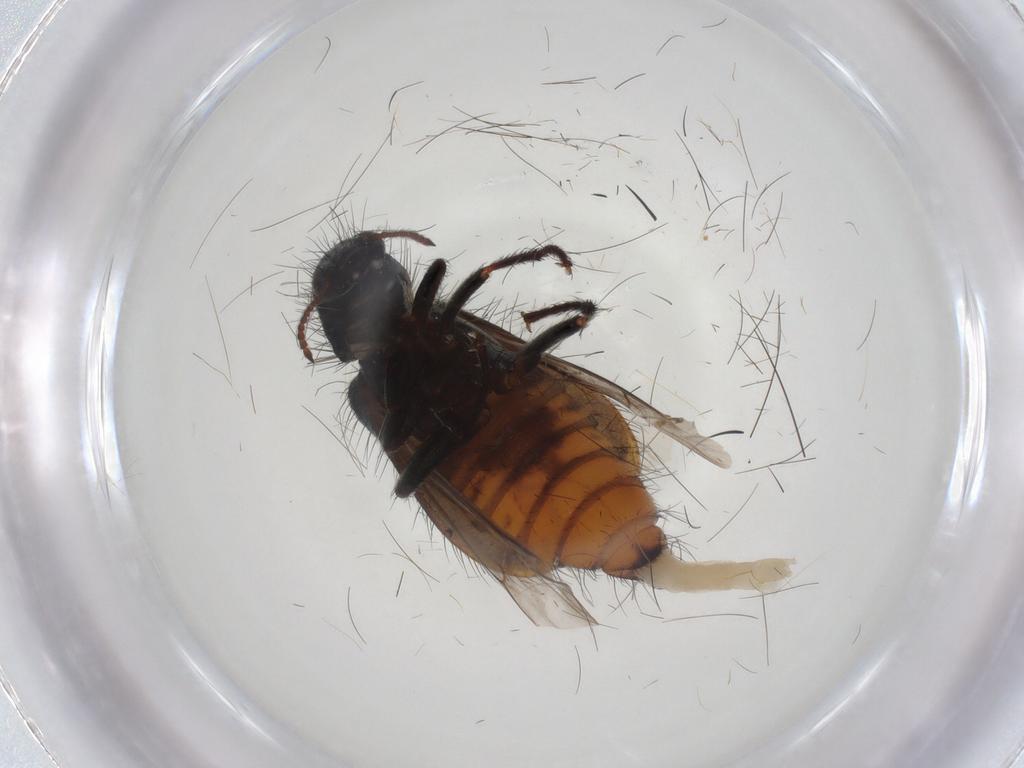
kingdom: Animalia
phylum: Arthropoda
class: Insecta
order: Coleoptera
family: Melyridae
